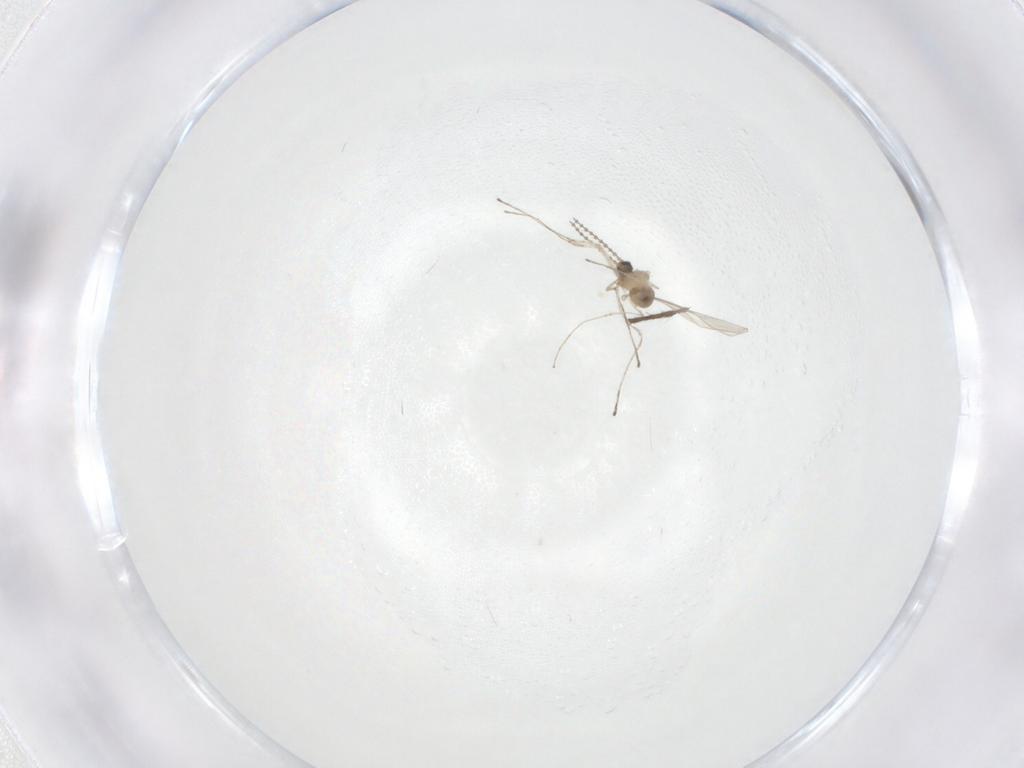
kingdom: Animalia
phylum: Arthropoda
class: Insecta
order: Diptera
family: Cecidomyiidae
